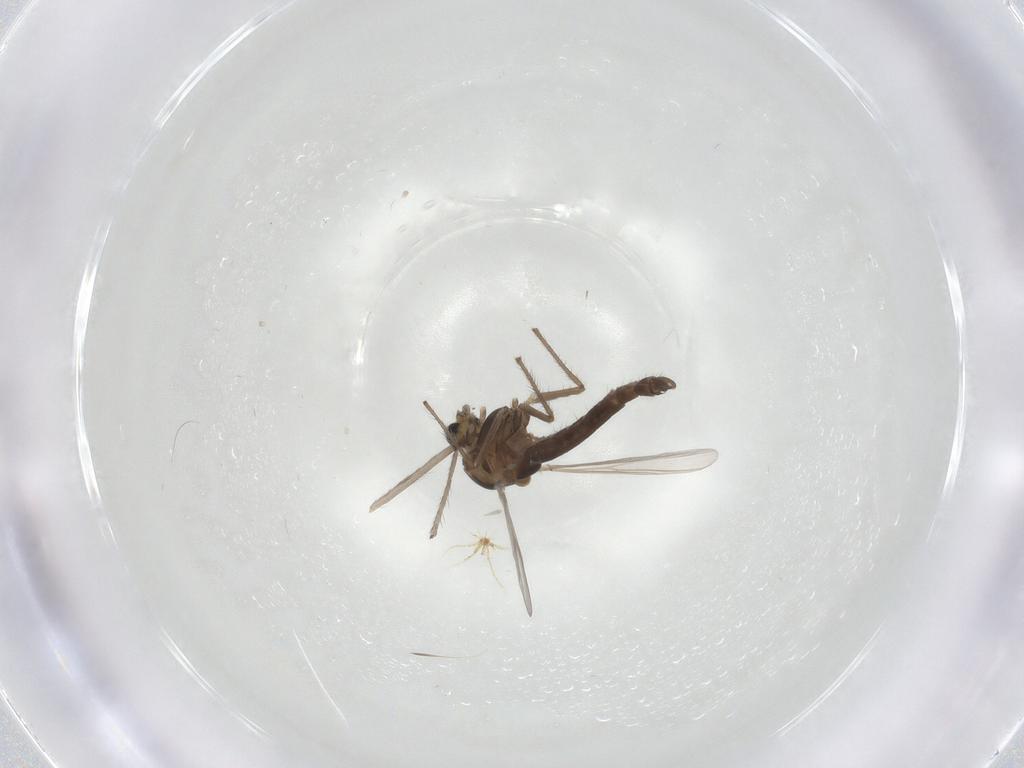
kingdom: Animalia
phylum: Arthropoda
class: Insecta
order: Diptera
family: Chironomidae
